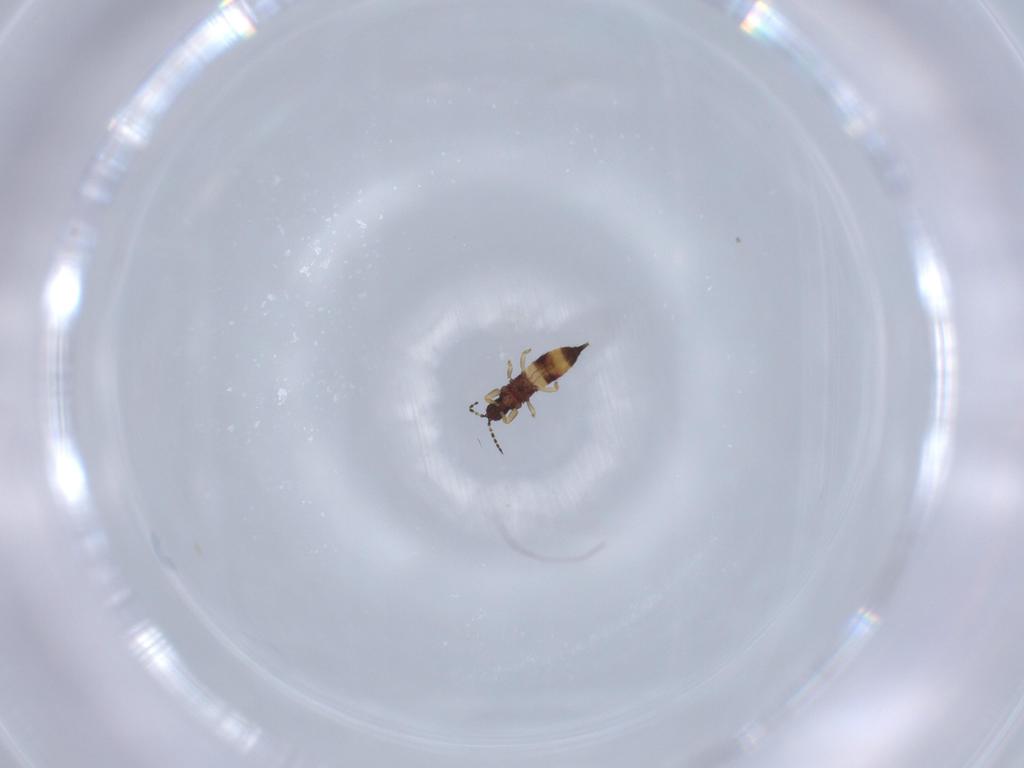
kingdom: Animalia
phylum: Arthropoda
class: Insecta
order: Thysanoptera
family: Phlaeothripidae
